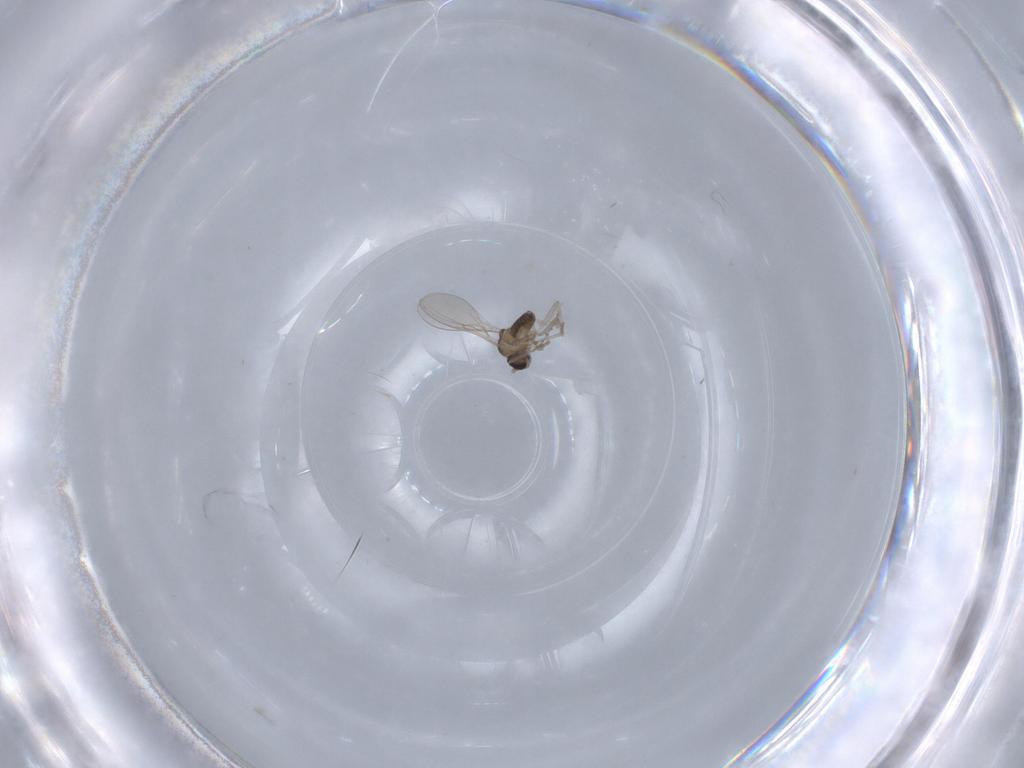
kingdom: Animalia
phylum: Arthropoda
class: Insecta
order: Diptera
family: Cecidomyiidae
